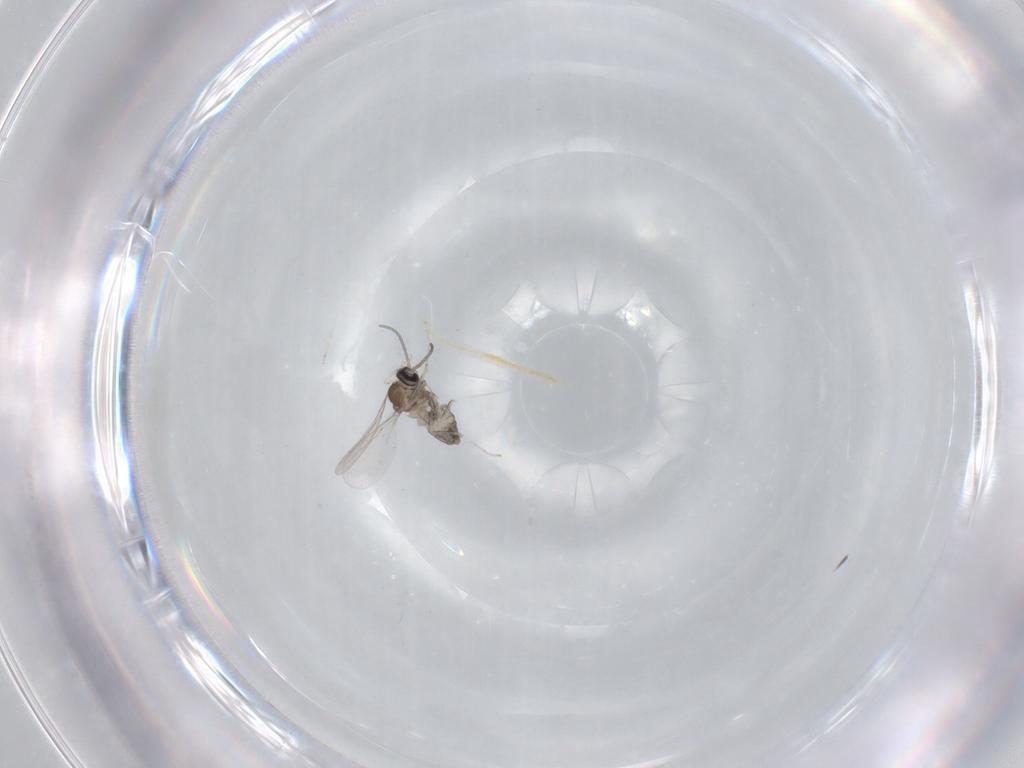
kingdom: Animalia
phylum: Arthropoda
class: Insecta
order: Diptera
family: Cecidomyiidae
